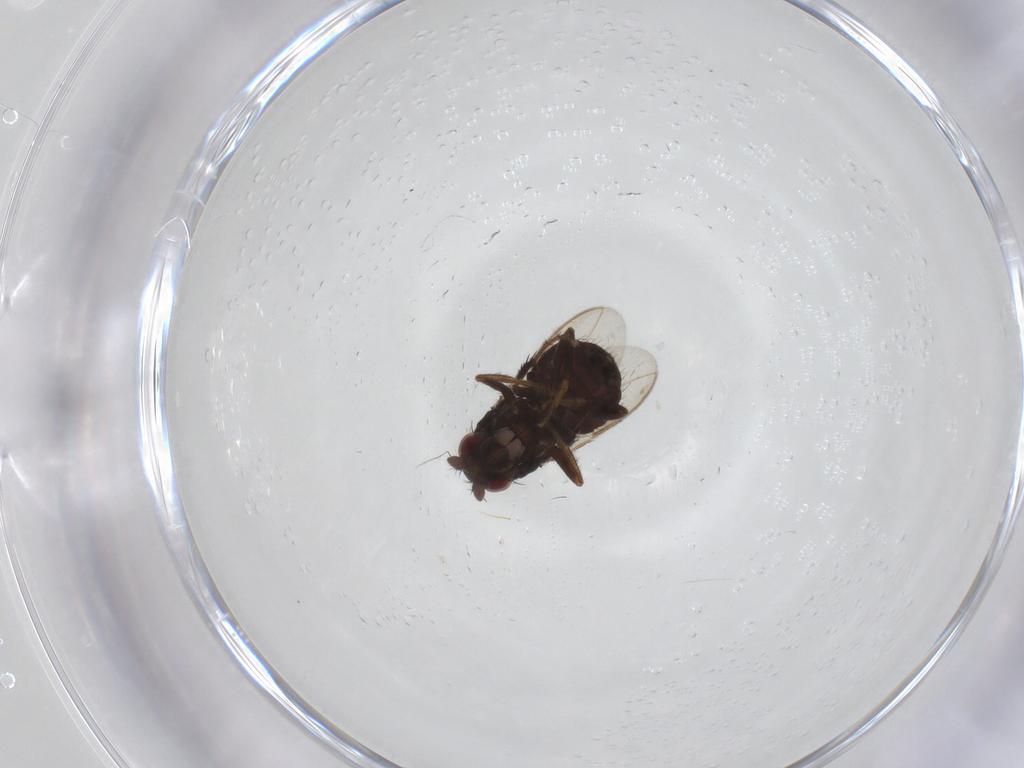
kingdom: Animalia
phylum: Arthropoda
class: Insecta
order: Diptera
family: Sphaeroceridae
